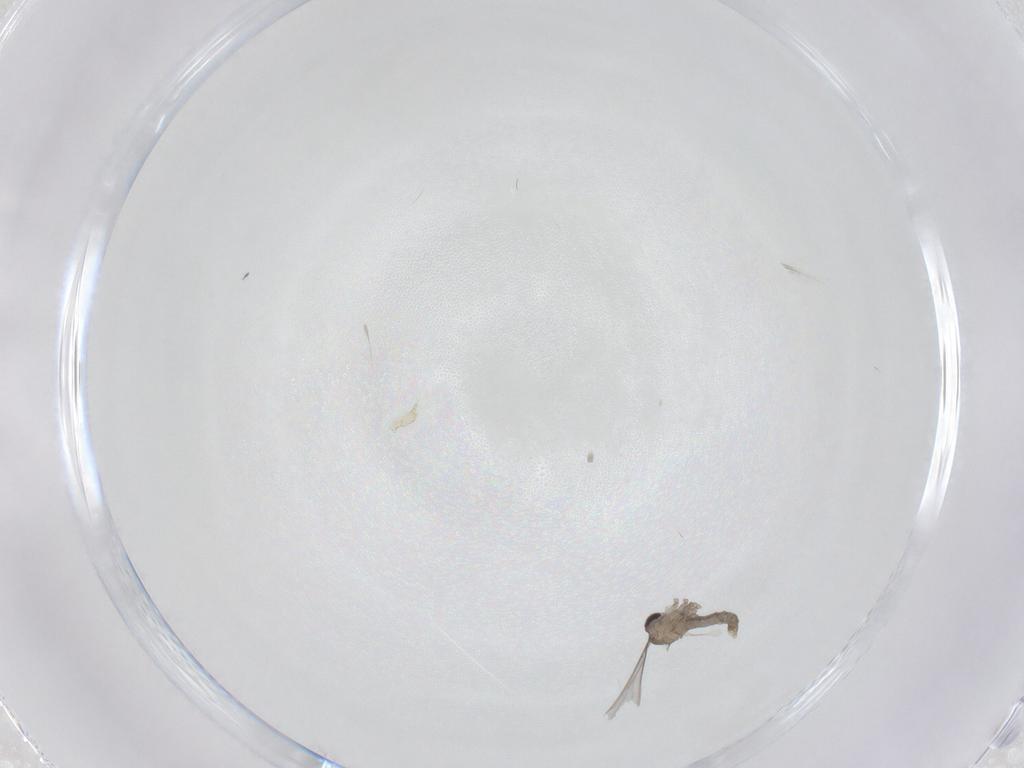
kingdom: Animalia
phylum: Arthropoda
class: Insecta
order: Diptera
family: Cecidomyiidae
